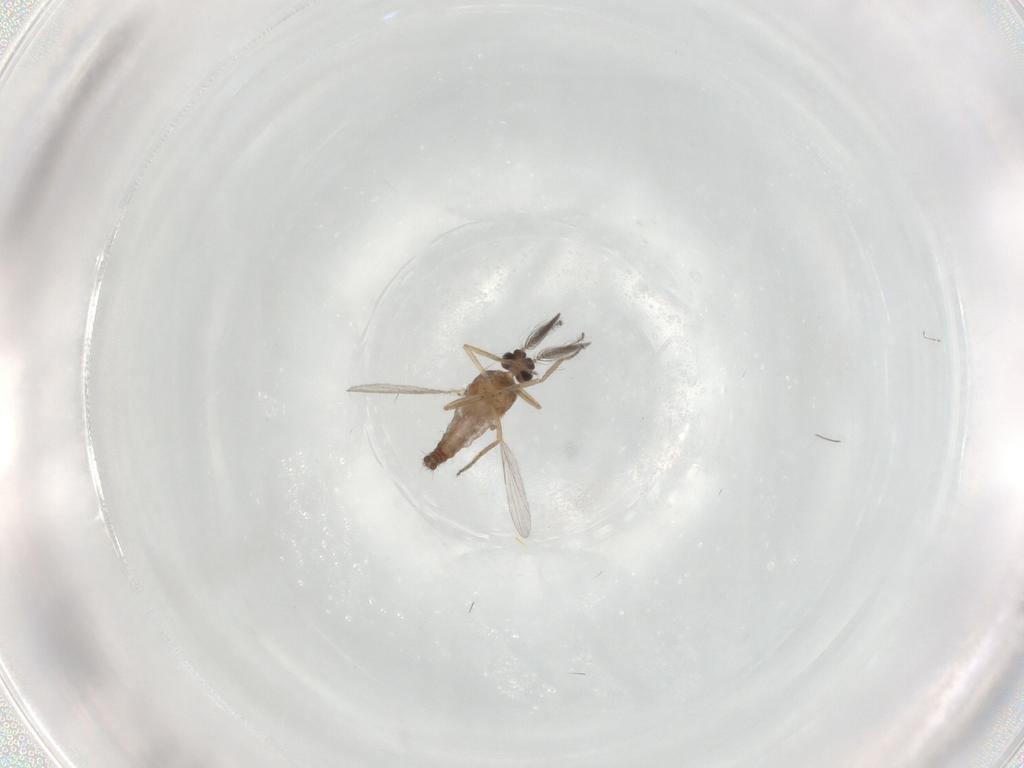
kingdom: Animalia
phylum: Arthropoda
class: Insecta
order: Diptera
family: Ceratopogonidae
